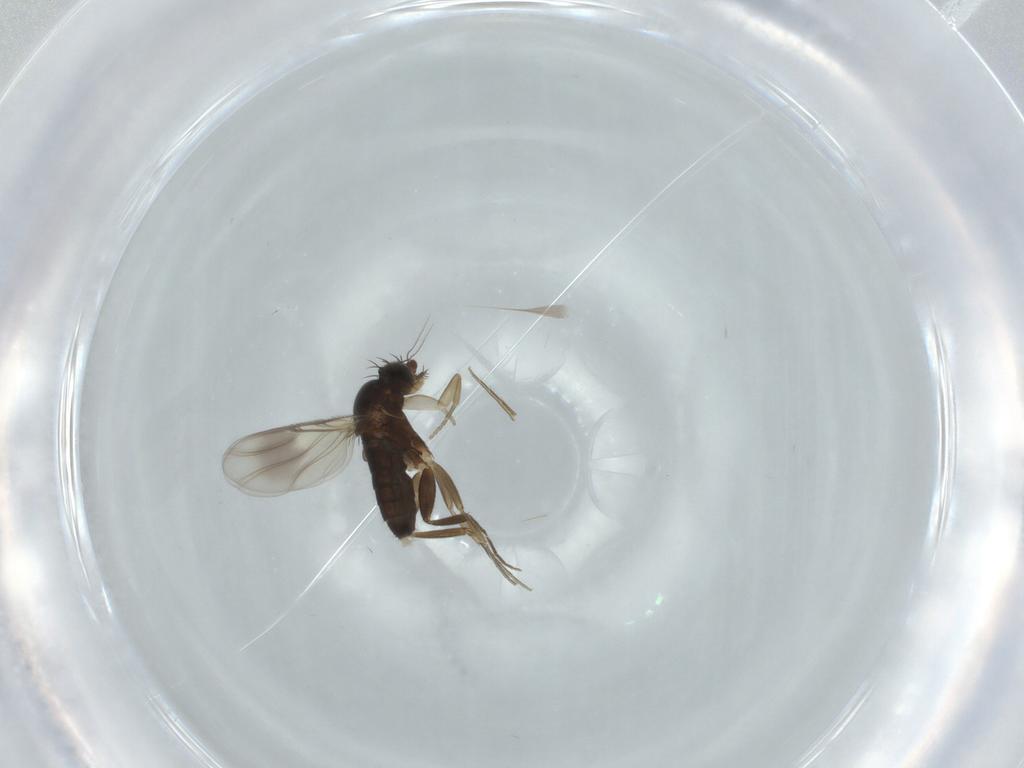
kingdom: Animalia
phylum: Arthropoda
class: Insecta
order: Diptera
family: Phoridae
